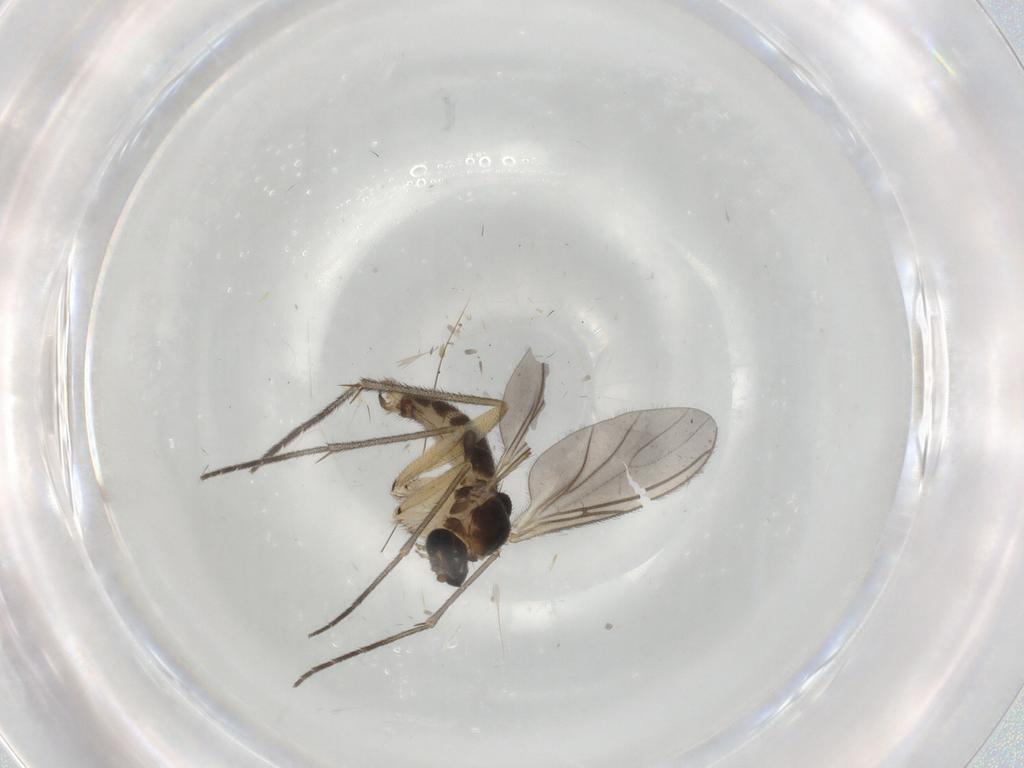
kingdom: Animalia
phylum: Arthropoda
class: Insecta
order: Diptera
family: Sciaridae
